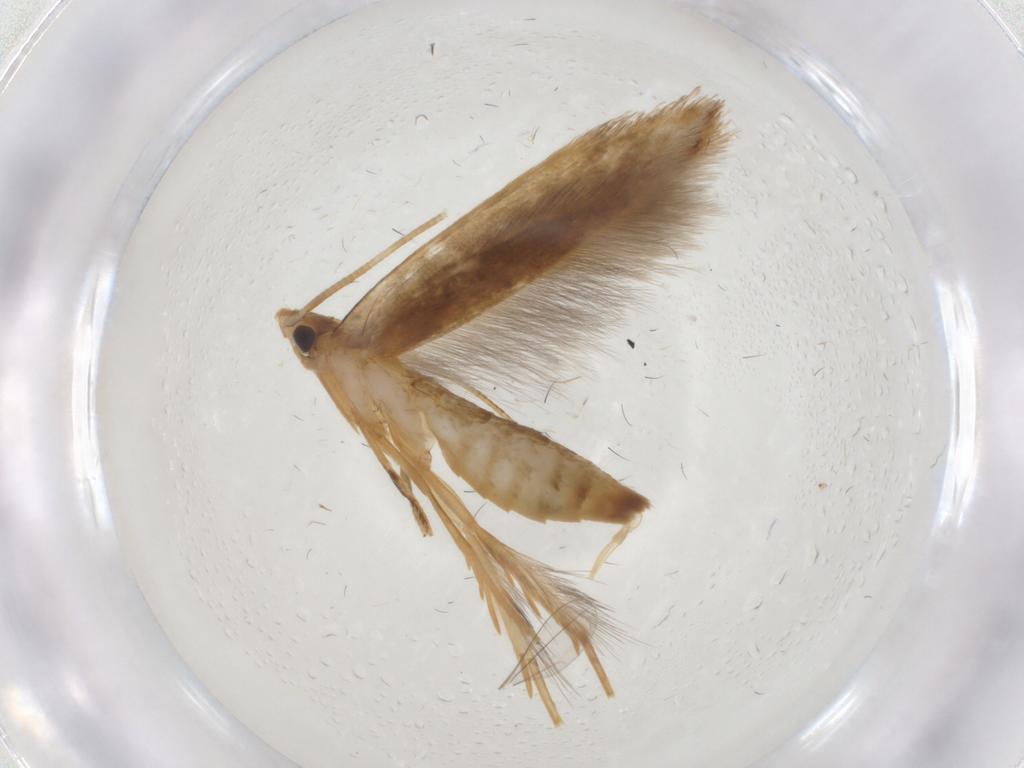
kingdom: Animalia
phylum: Arthropoda
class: Insecta
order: Lepidoptera
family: Tineidae
